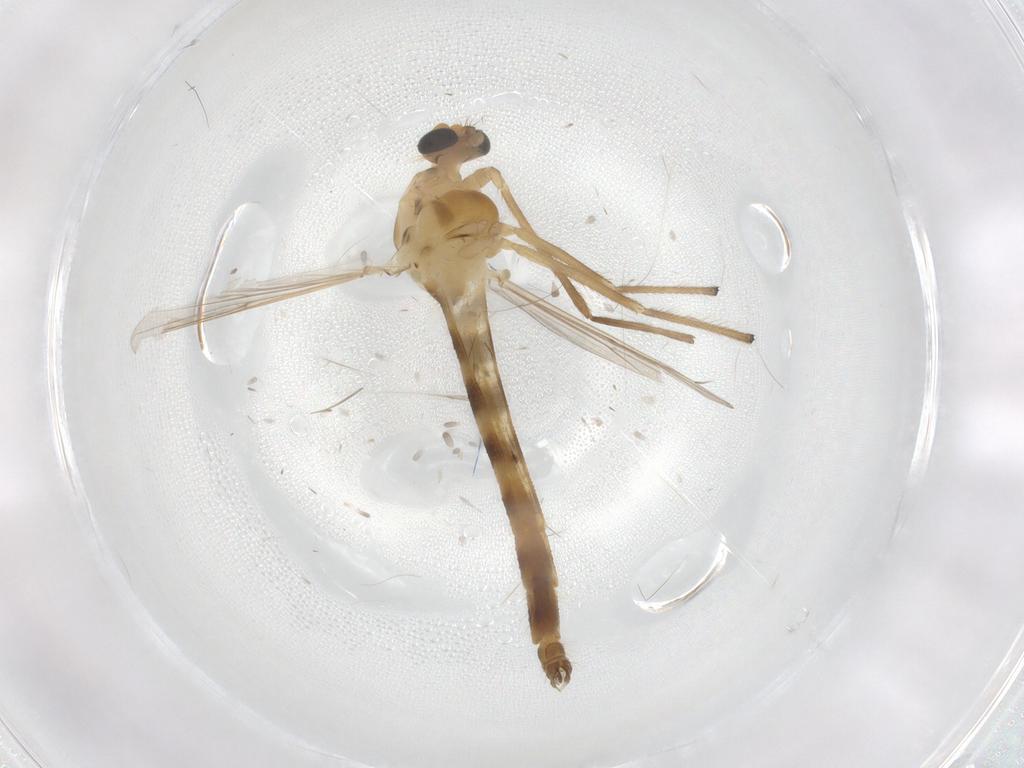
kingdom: Animalia
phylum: Arthropoda
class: Insecta
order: Diptera
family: Chironomidae
